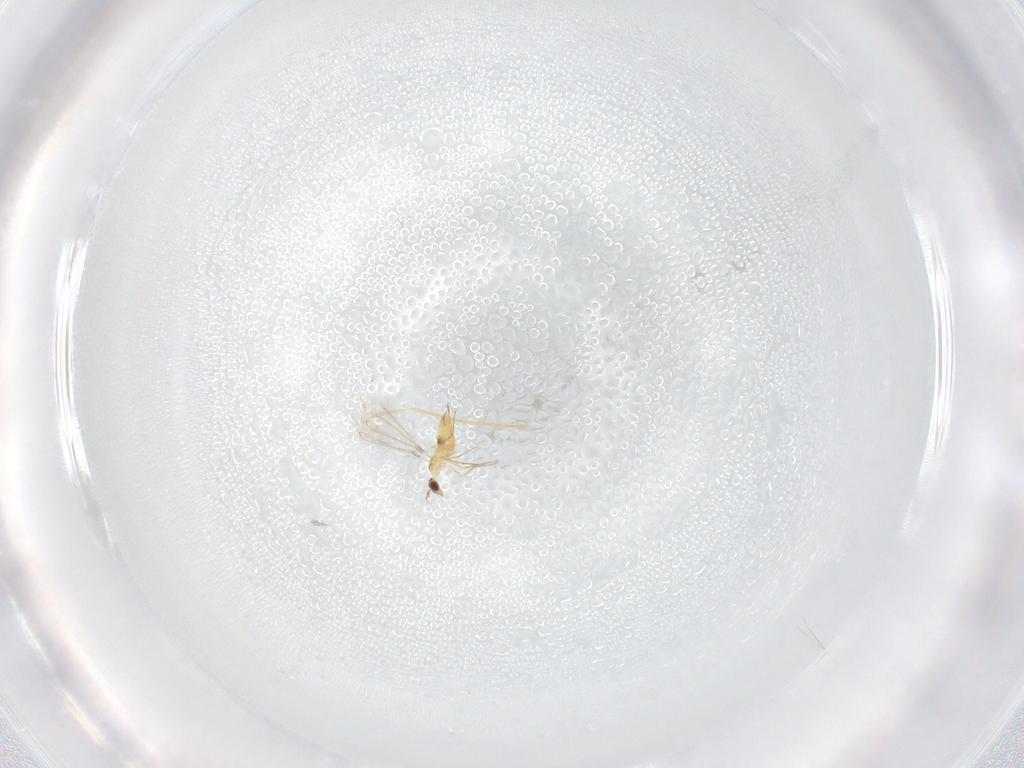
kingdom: Animalia
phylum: Arthropoda
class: Insecta
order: Hymenoptera
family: Mymaridae
